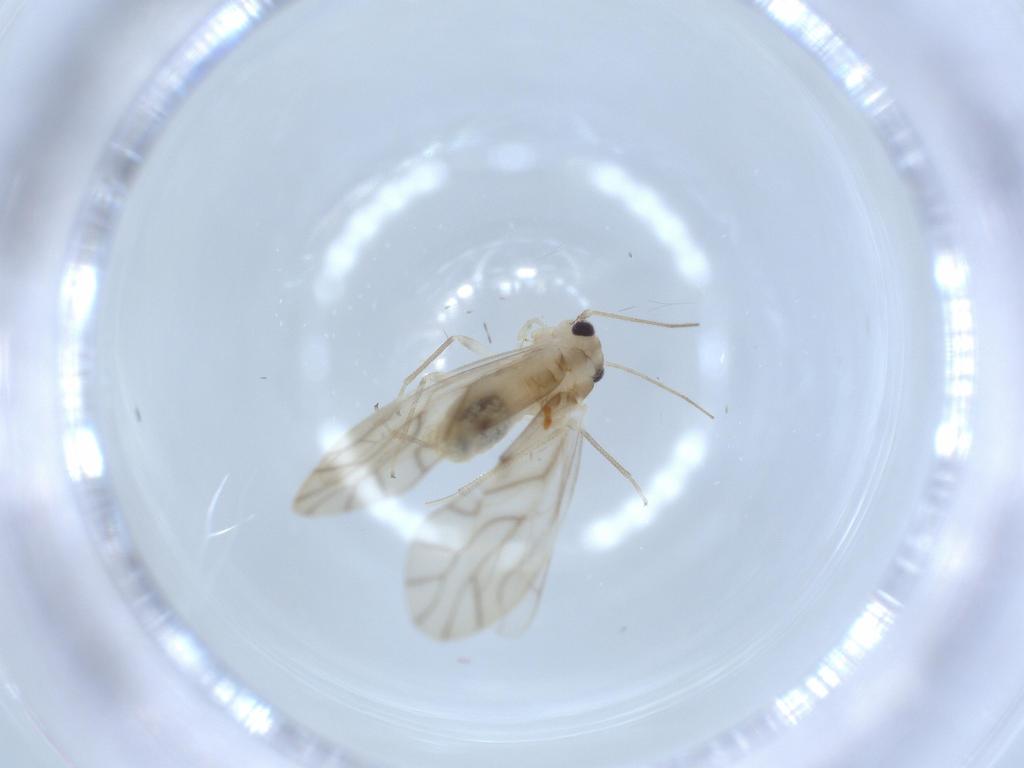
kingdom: Animalia
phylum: Arthropoda
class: Insecta
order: Psocodea
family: Caeciliusidae
